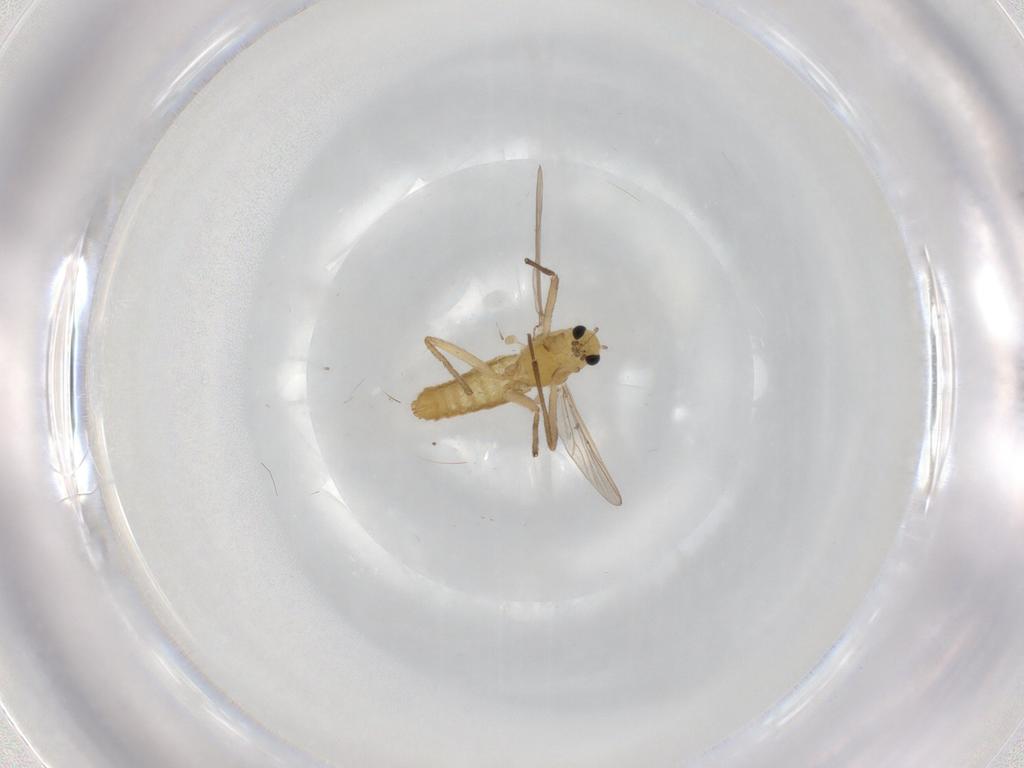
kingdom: Animalia
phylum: Arthropoda
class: Insecta
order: Diptera
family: Chironomidae
